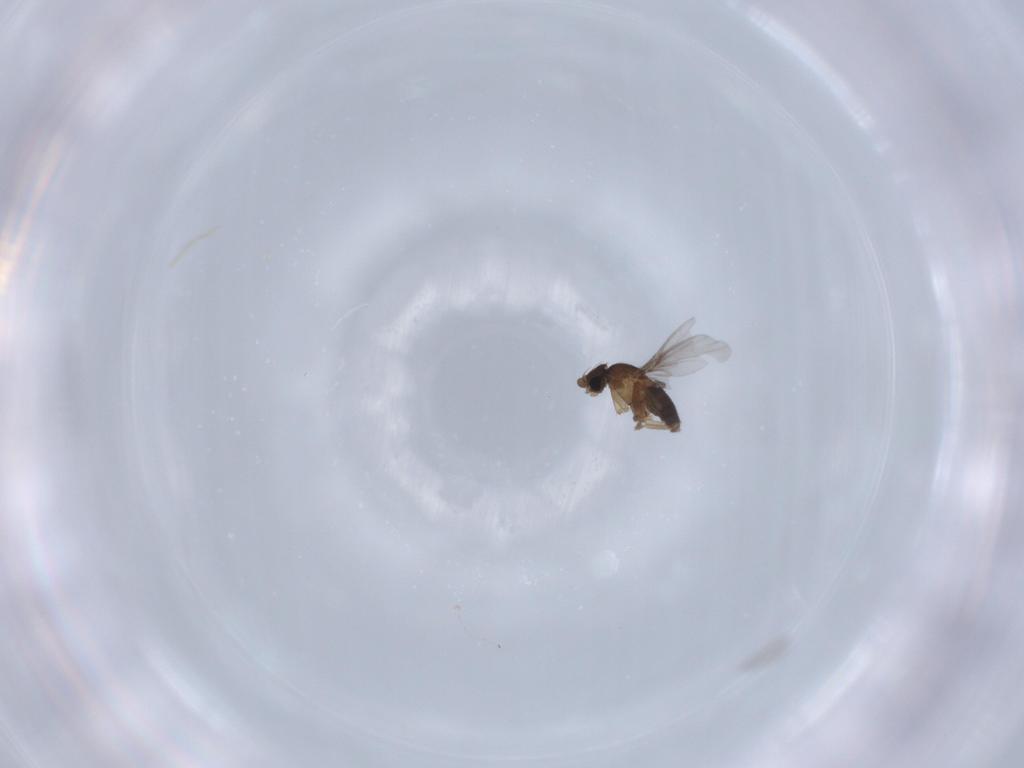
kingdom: Animalia
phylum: Arthropoda
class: Insecta
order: Diptera
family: Phoridae
